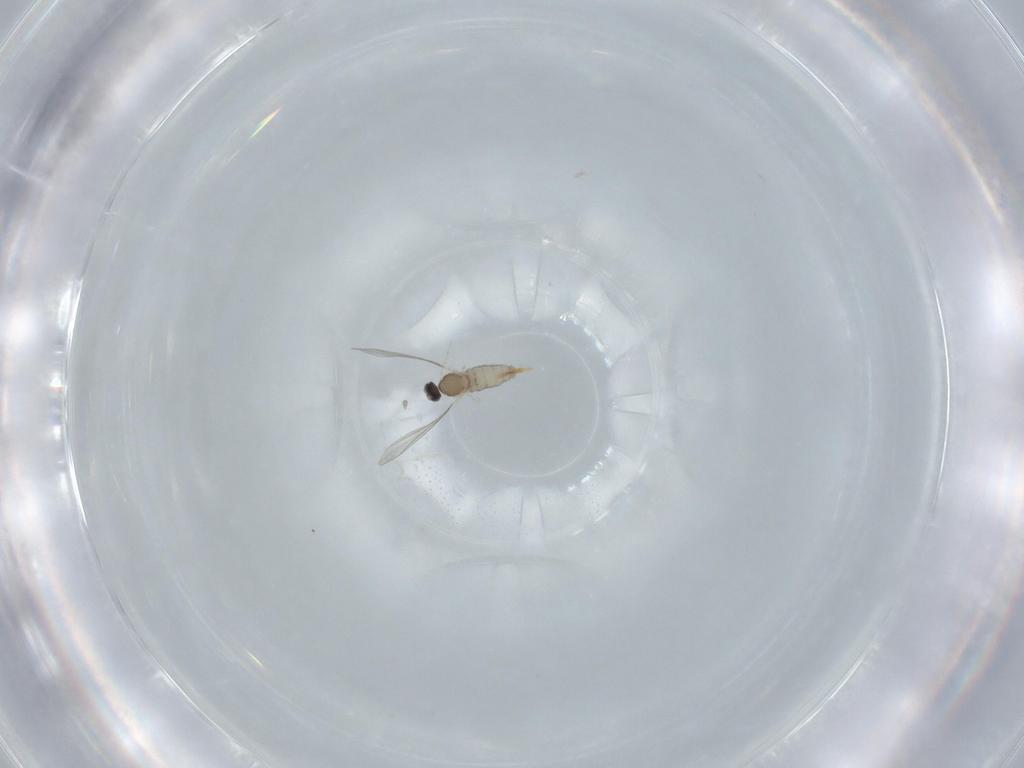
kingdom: Animalia
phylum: Arthropoda
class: Insecta
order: Diptera
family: Cecidomyiidae
